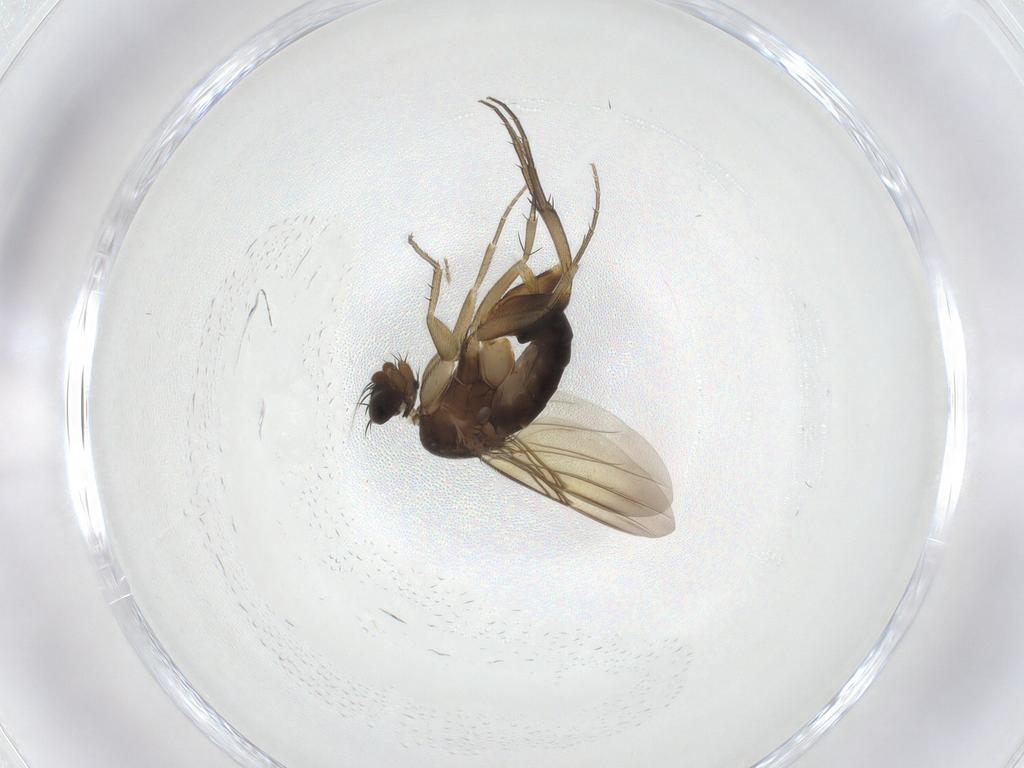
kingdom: Animalia
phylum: Arthropoda
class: Insecta
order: Diptera
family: Phoridae
